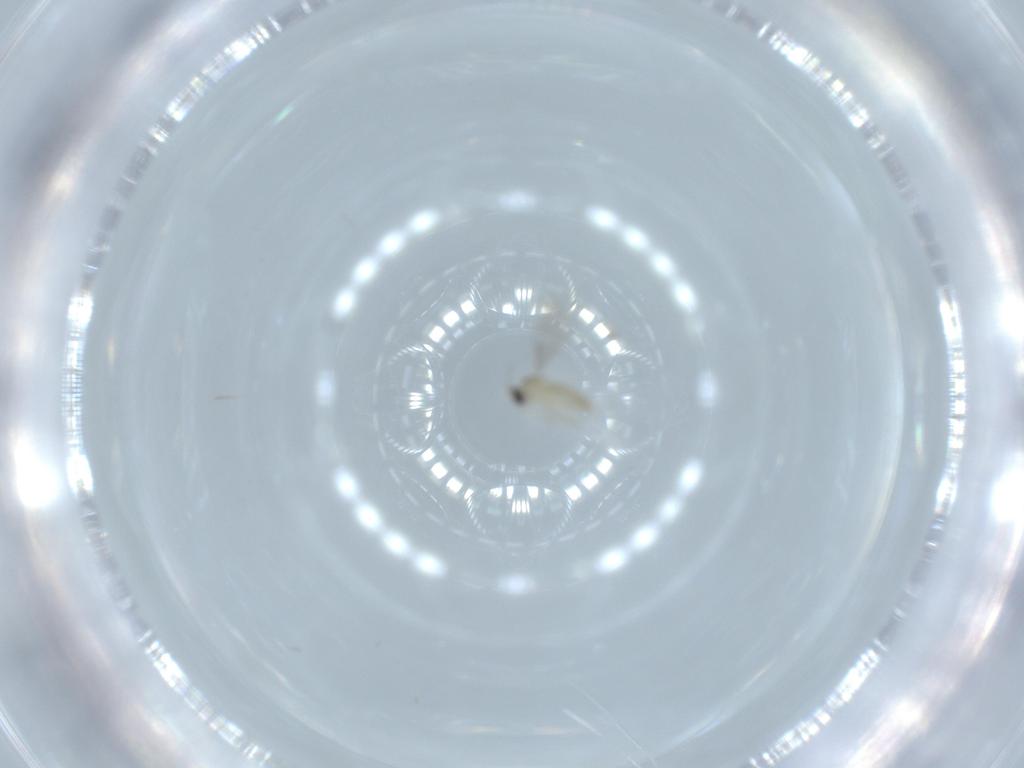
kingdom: Animalia
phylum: Arthropoda
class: Insecta
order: Diptera
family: Cecidomyiidae
